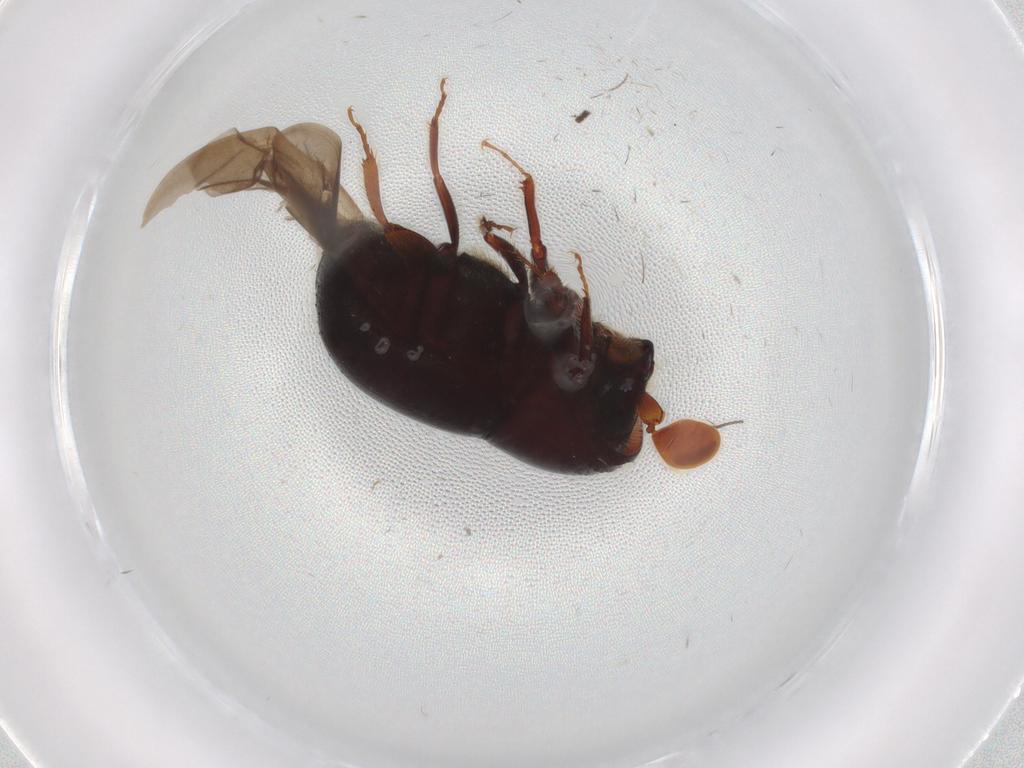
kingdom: Animalia
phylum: Arthropoda
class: Insecta
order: Coleoptera
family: Curculionidae
